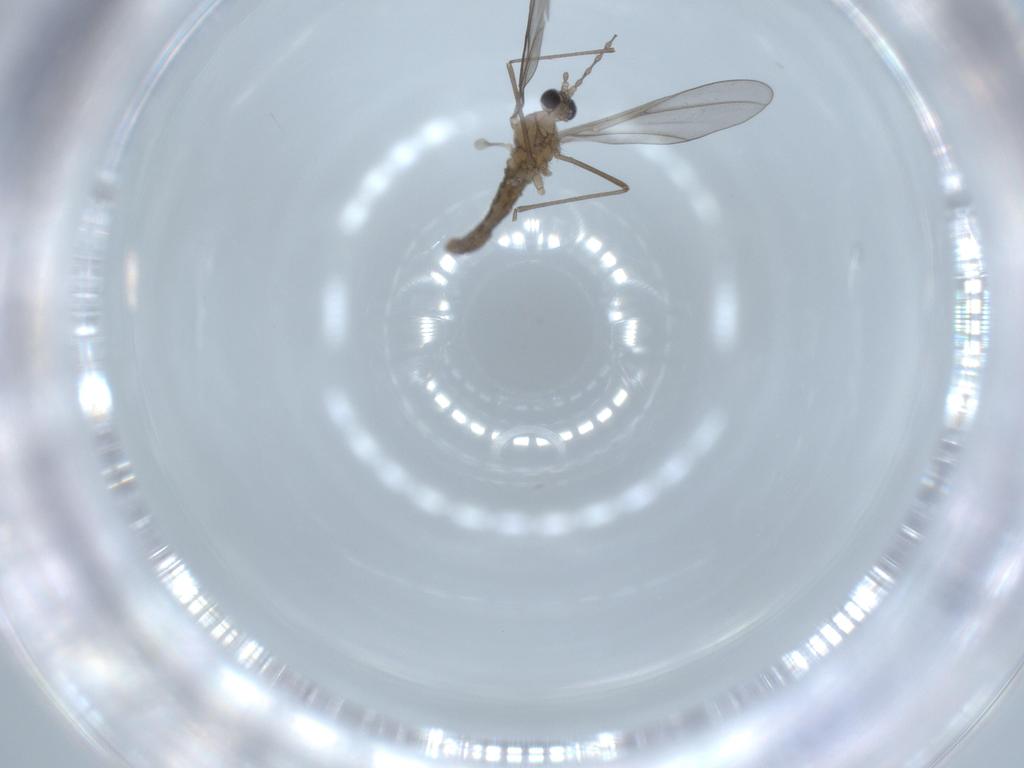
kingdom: Animalia
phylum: Arthropoda
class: Insecta
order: Diptera
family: Cecidomyiidae
